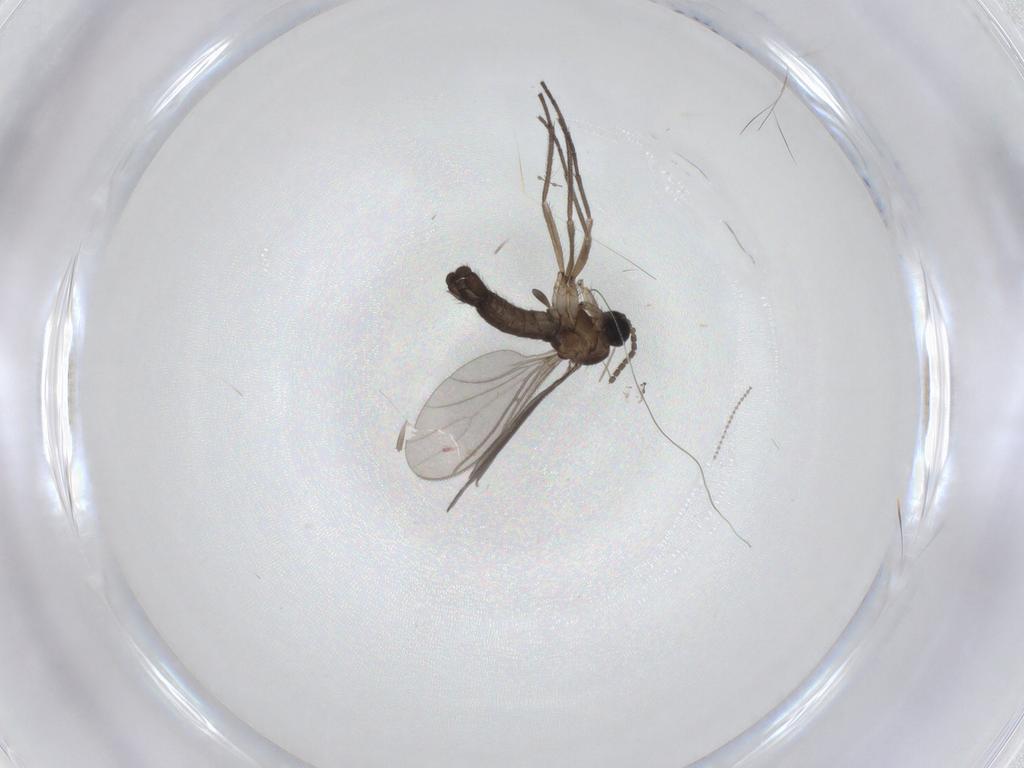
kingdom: Animalia
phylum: Arthropoda
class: Insecta
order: Diptera
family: Sciaridae
